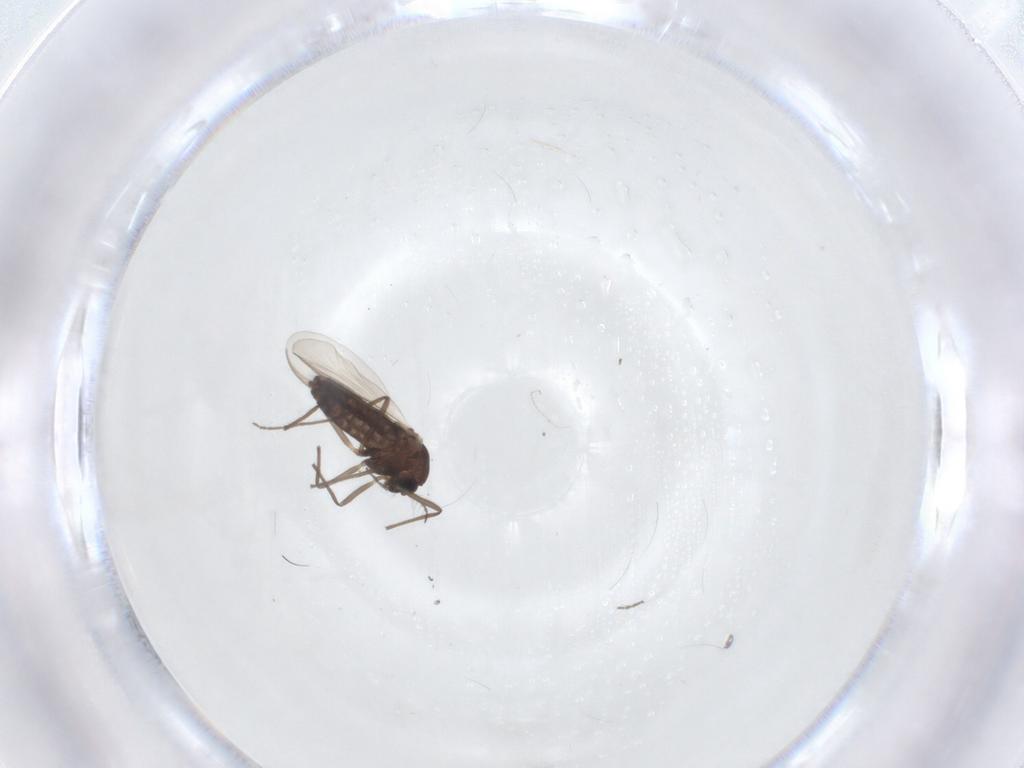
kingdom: Animalia
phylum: Arthropoda
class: Insecta
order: Diptera
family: Chironomidae
